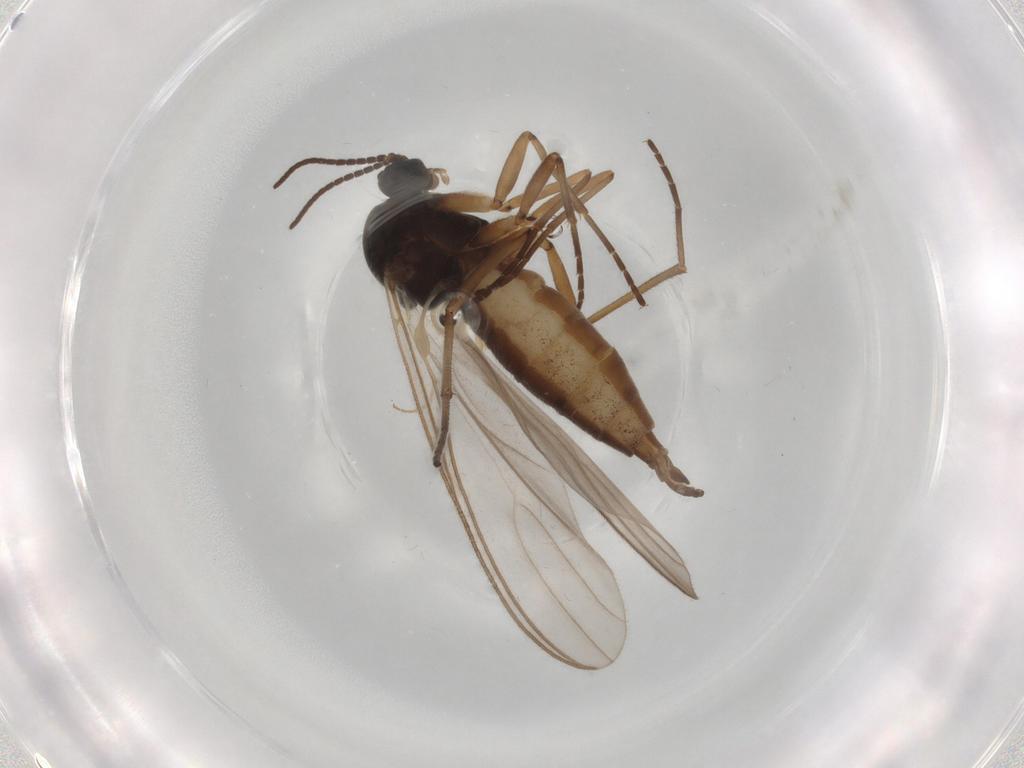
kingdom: Animalia
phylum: Arthropoda
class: Insecta
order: Diptera
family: Sciaridae
